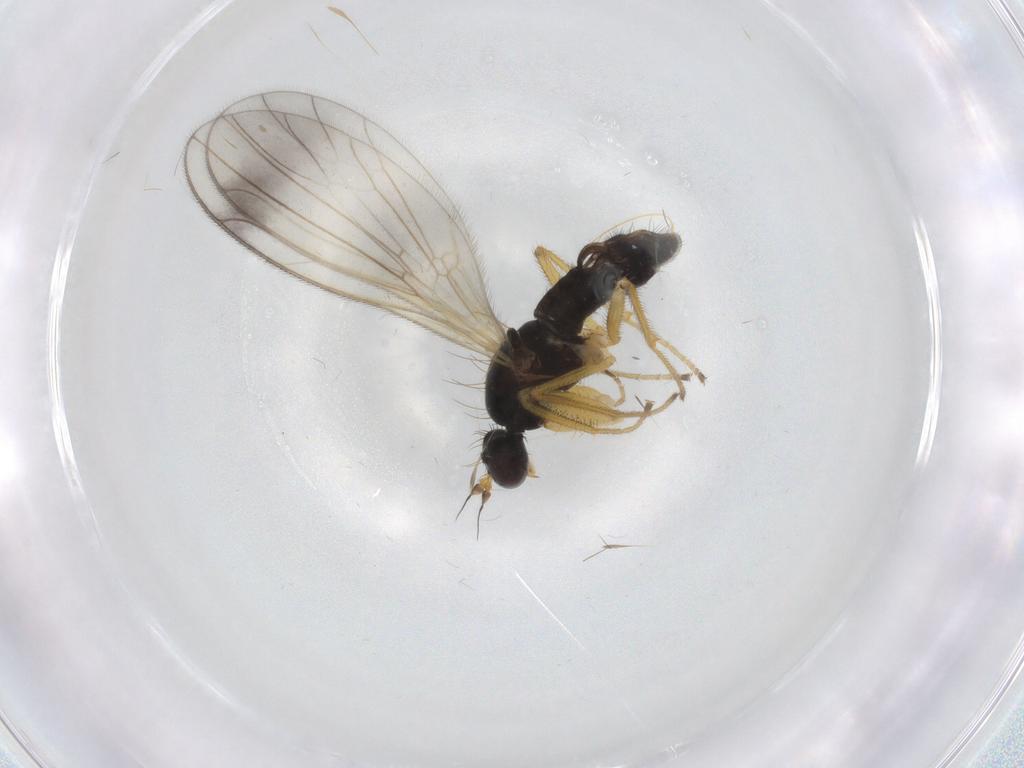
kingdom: Animalia
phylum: Arthropoda
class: Insecta
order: Diptera
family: Empididae
